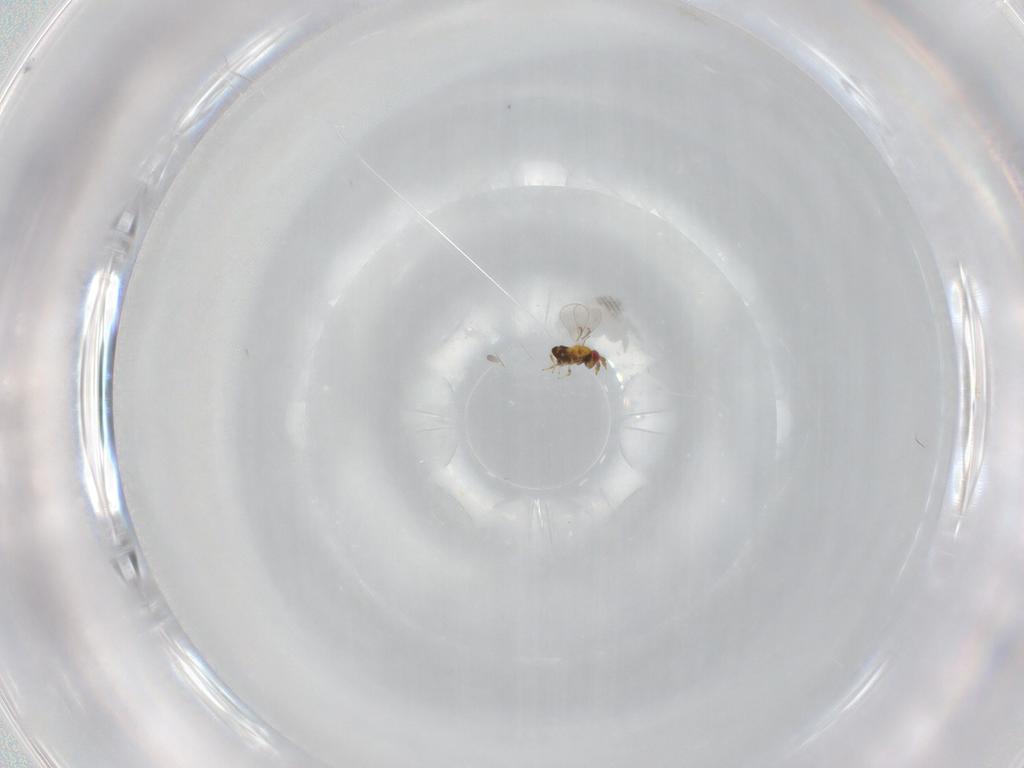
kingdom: Animalia
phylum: Arthropoda
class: Insecta
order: Hymenoptera
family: Trichogrammatidae
